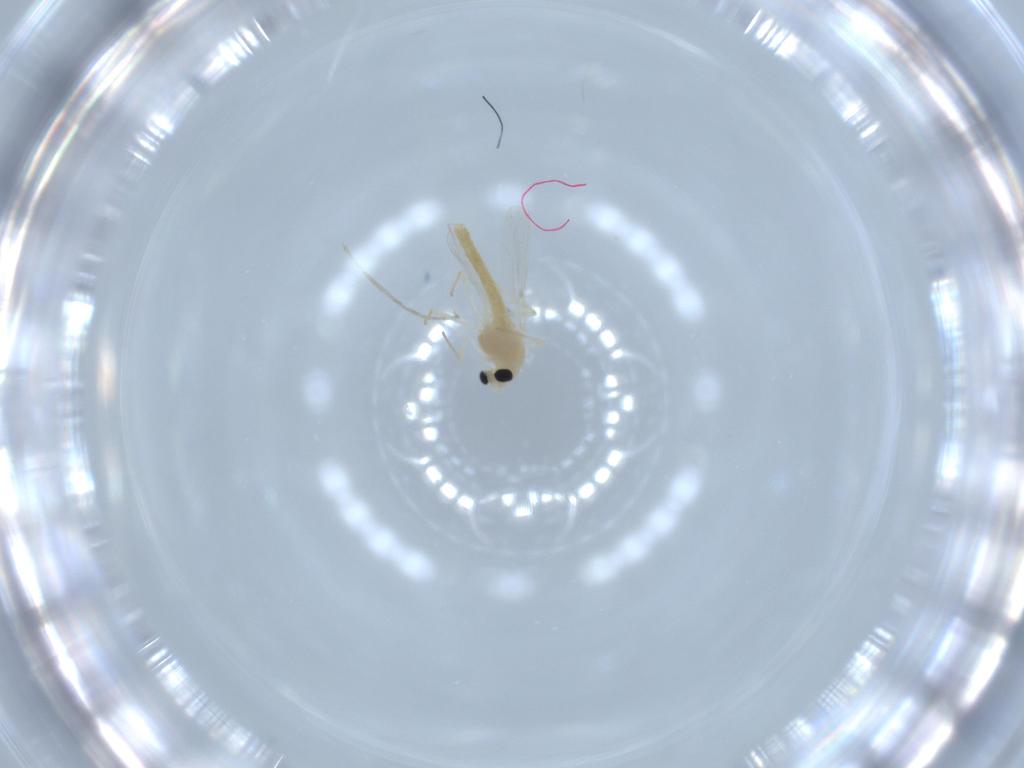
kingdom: Animalia
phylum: Arthropoda
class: Insecta
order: Diptera
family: Chironomidae
